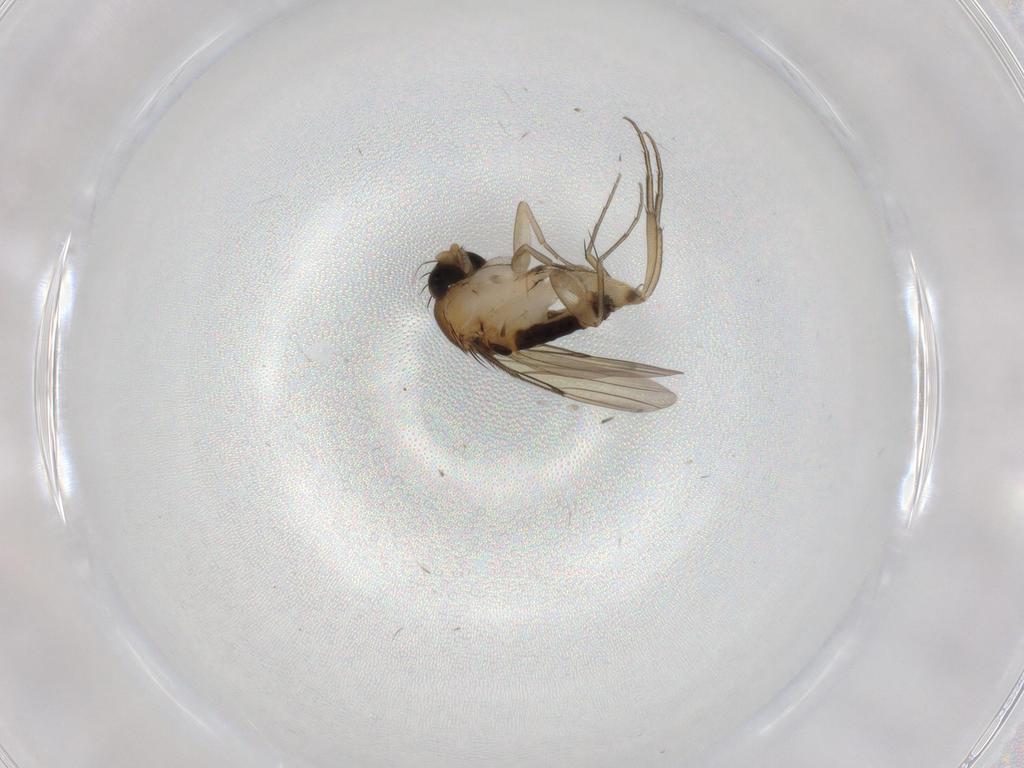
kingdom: Animalia
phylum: Arthropoda
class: Insecta
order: Diptera
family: Phoridae
